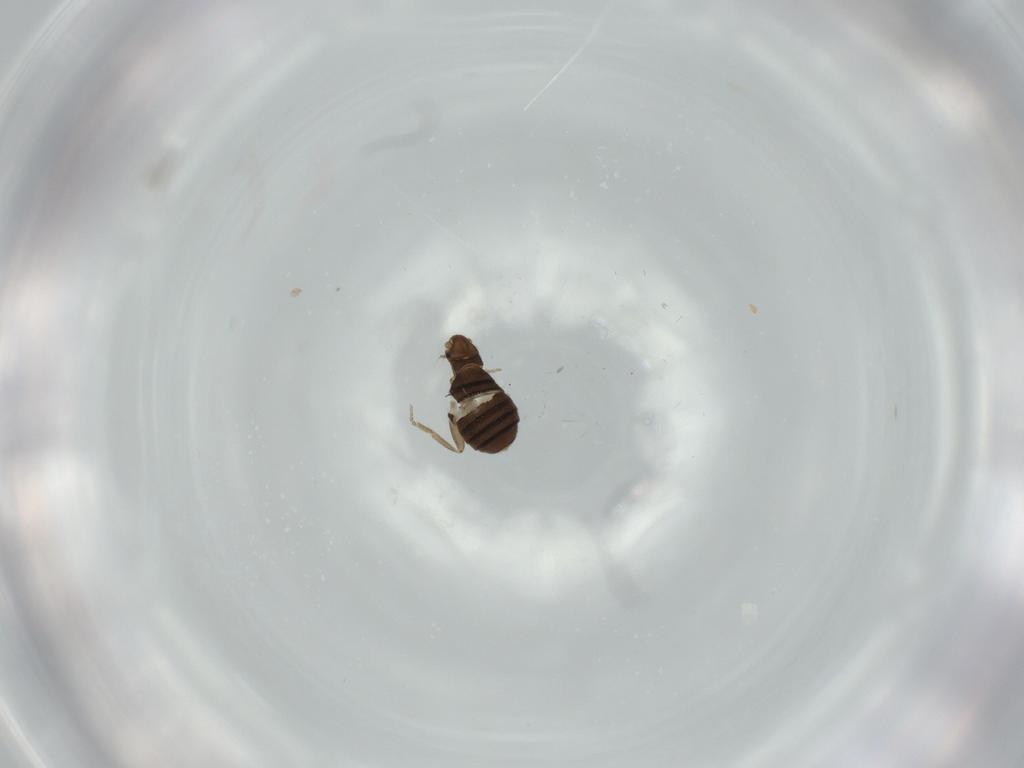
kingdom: Animalia
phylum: Arthropoda
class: Insecta
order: Diptera
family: Phoridae
